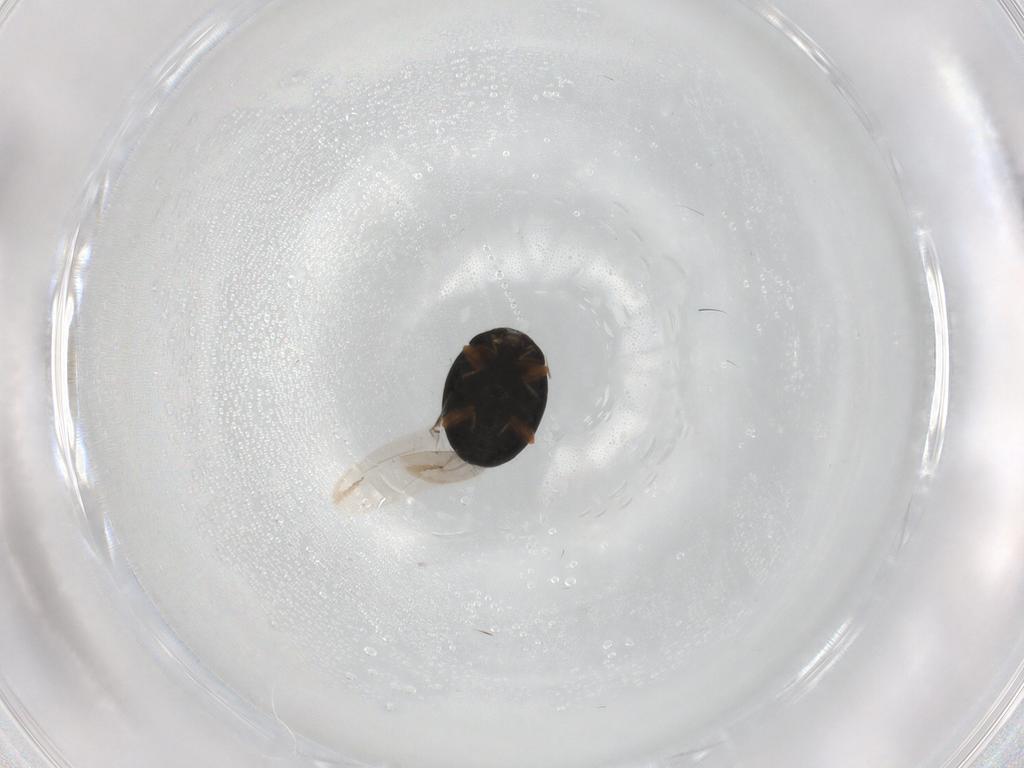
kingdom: Animalia
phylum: Arthropoda
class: Insecta
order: Coleoptera
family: Coccinellidae
